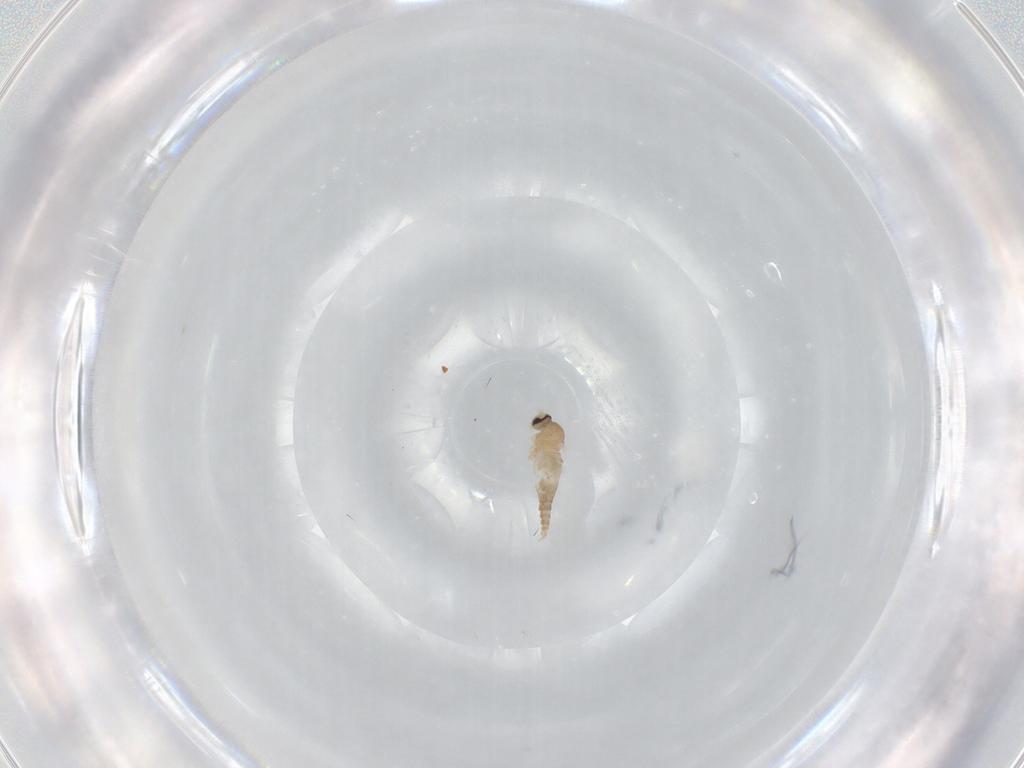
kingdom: Animalia
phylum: Arthropoda
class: Insecta
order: Diptera
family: Cecidomyiidae
